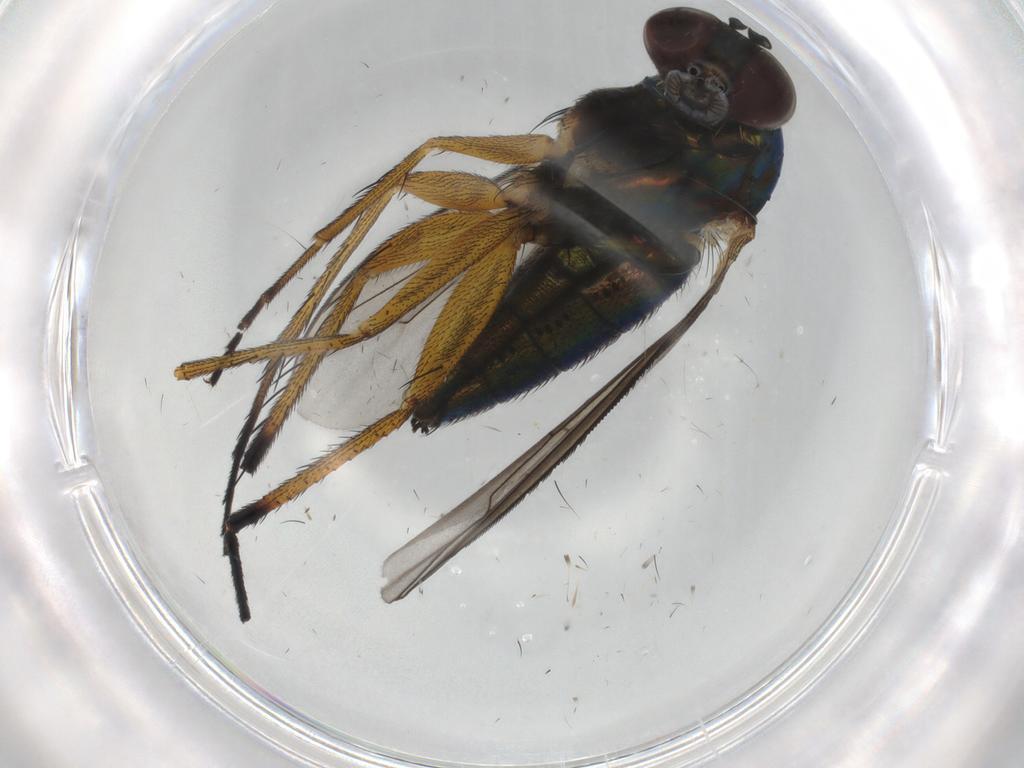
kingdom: Animalia
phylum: Arthropoda
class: Insecta
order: Diptera
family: Dolichopodidae
